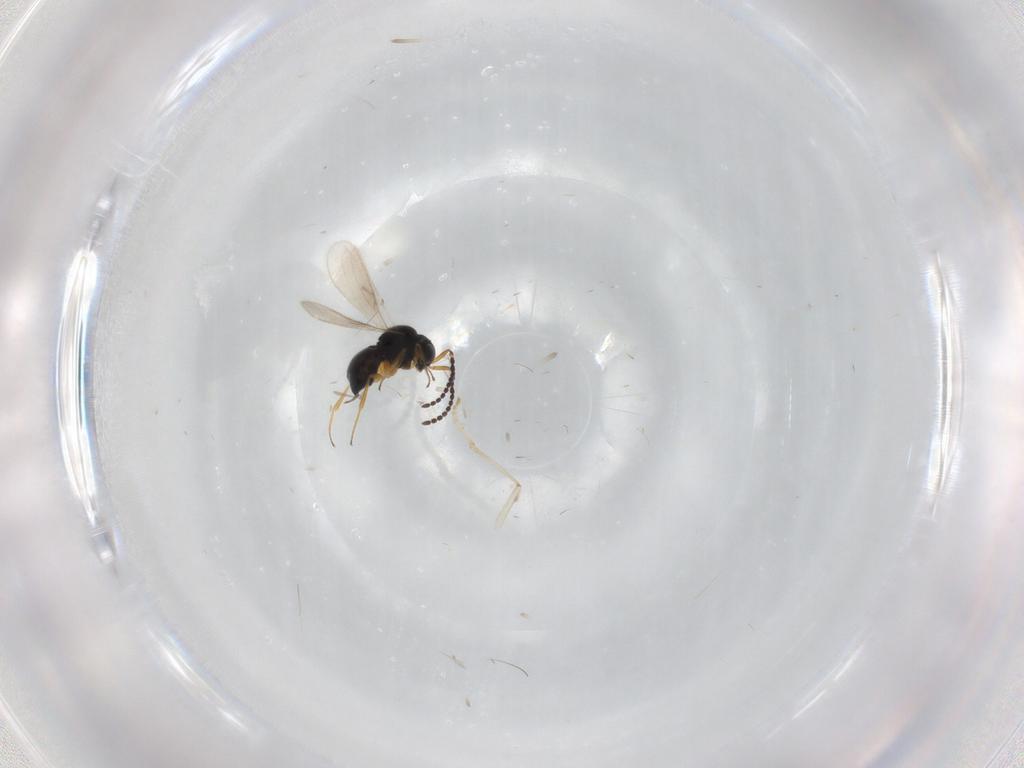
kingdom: Animalia
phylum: Arthropoda
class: Insecta
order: Hymenoptera
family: Scelionidae
